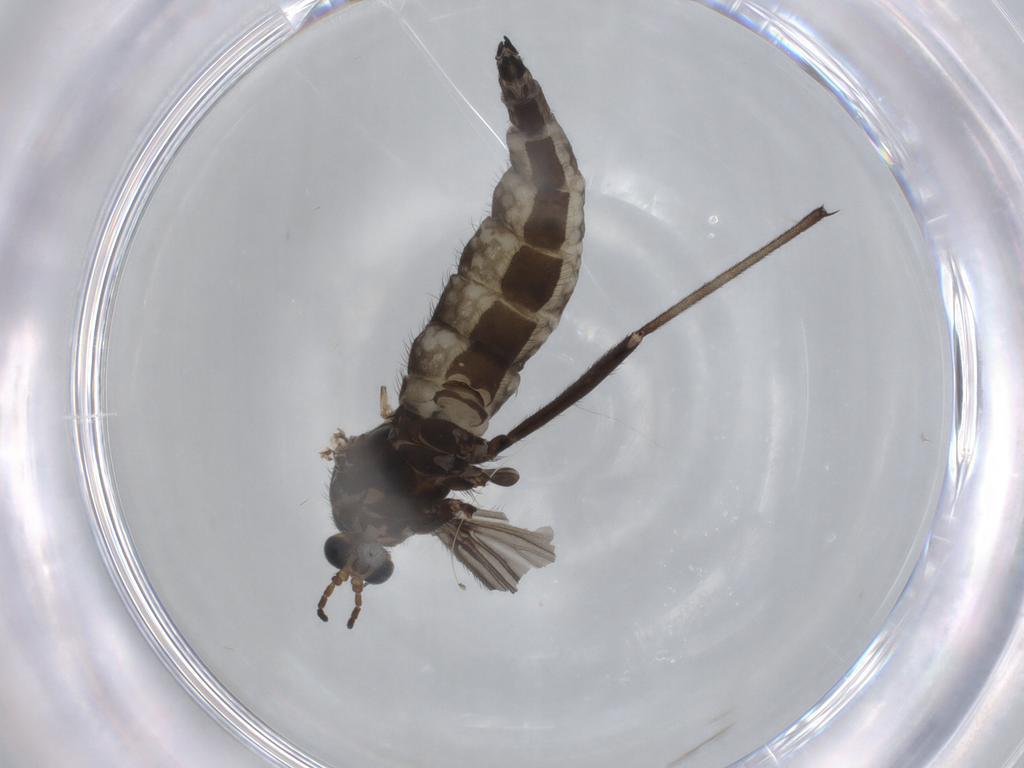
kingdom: Animalia
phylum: Arthropoda
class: Insecta
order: Diptera
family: Sciaridae
